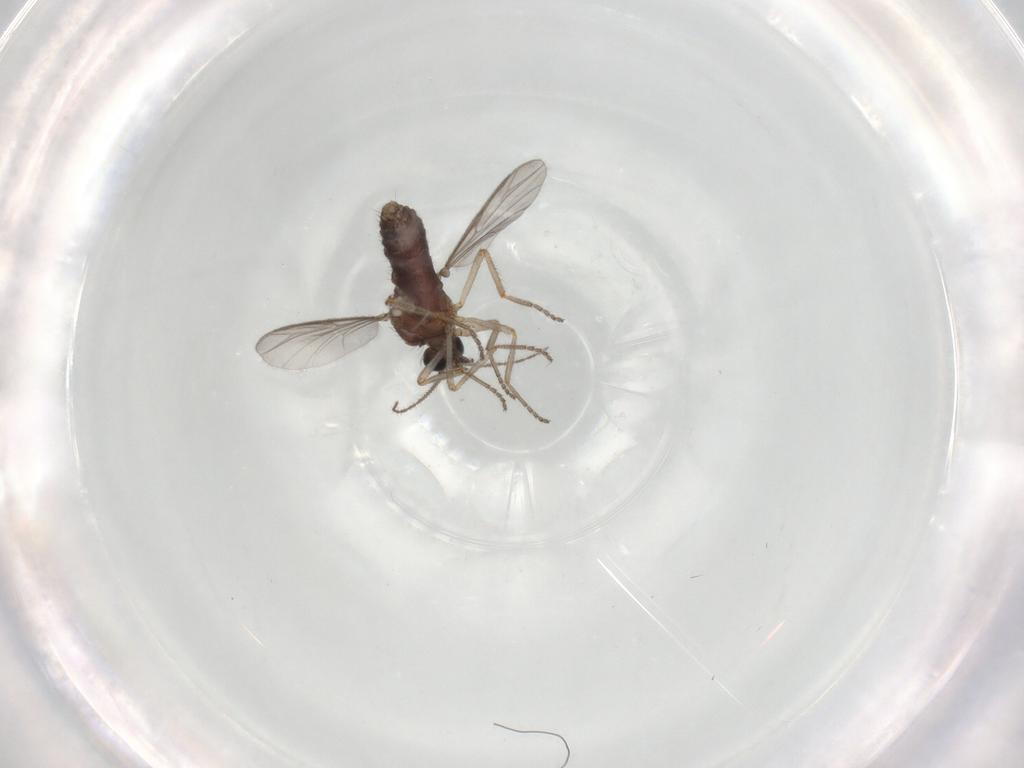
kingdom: Animalia
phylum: Arthropoda
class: Insecta
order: Diptera
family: Ceratopogonidae
